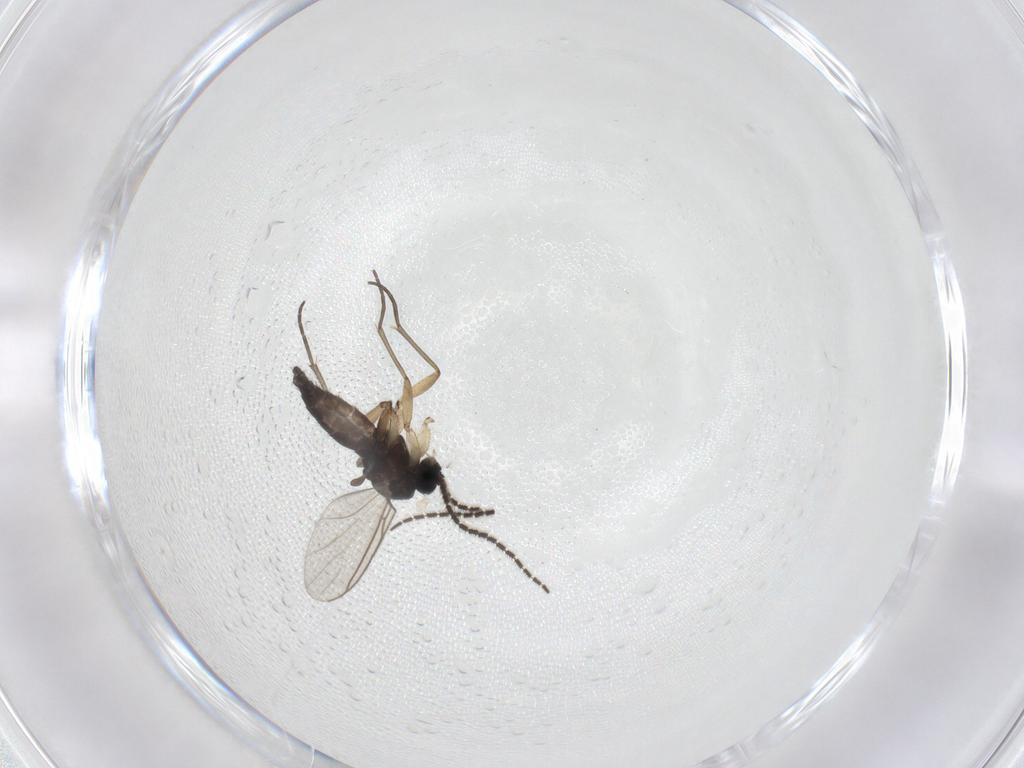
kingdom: Animalia
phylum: Arthropoda
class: Insecta
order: Diptera
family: Sciaridae
